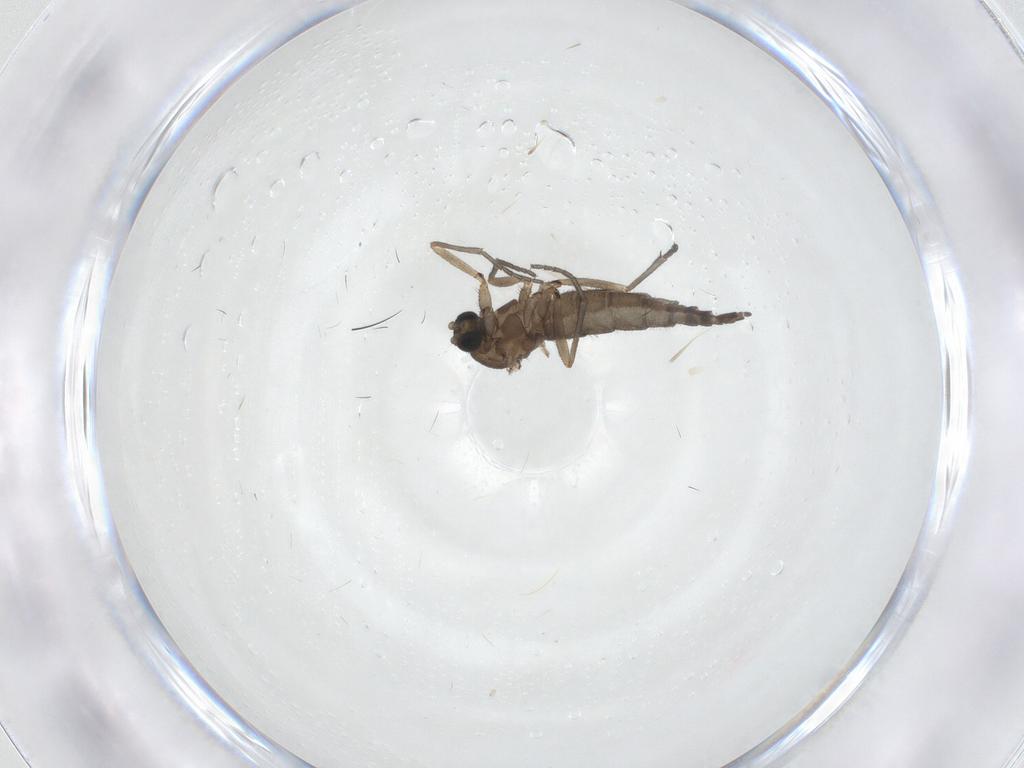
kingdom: Animalia
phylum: Arthropoda
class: Insecta
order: Diptera
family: Sciaridae
